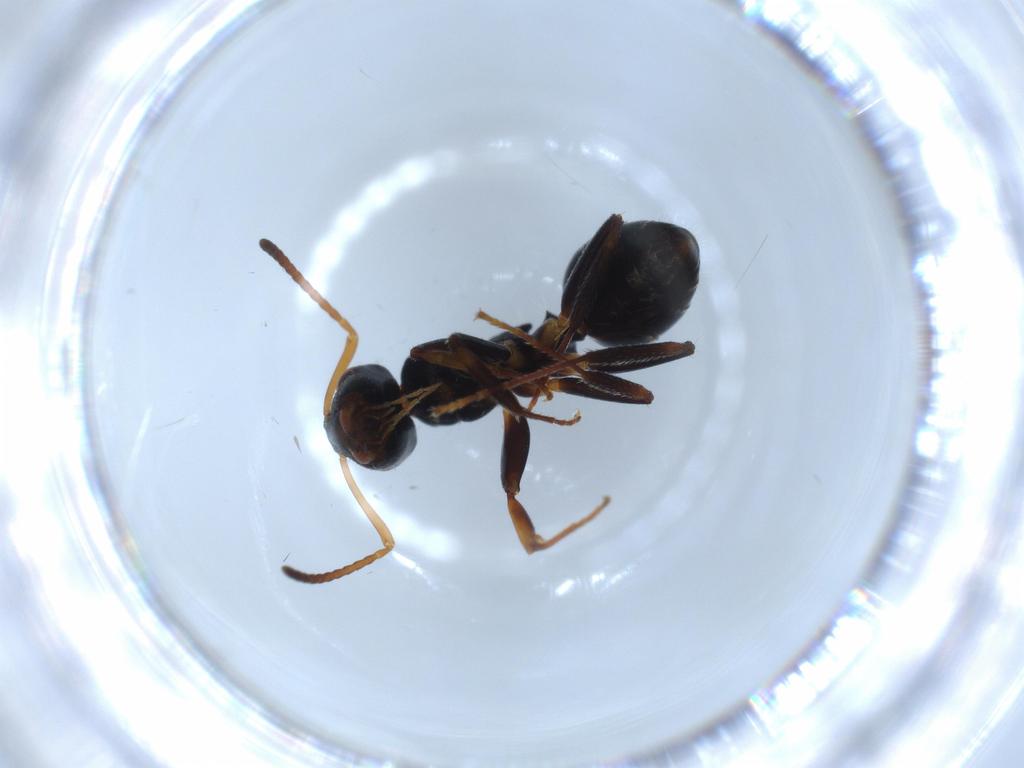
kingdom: Animalia
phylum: Arthropoda
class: Insecta
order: Hymenoptera
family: Formicidae
